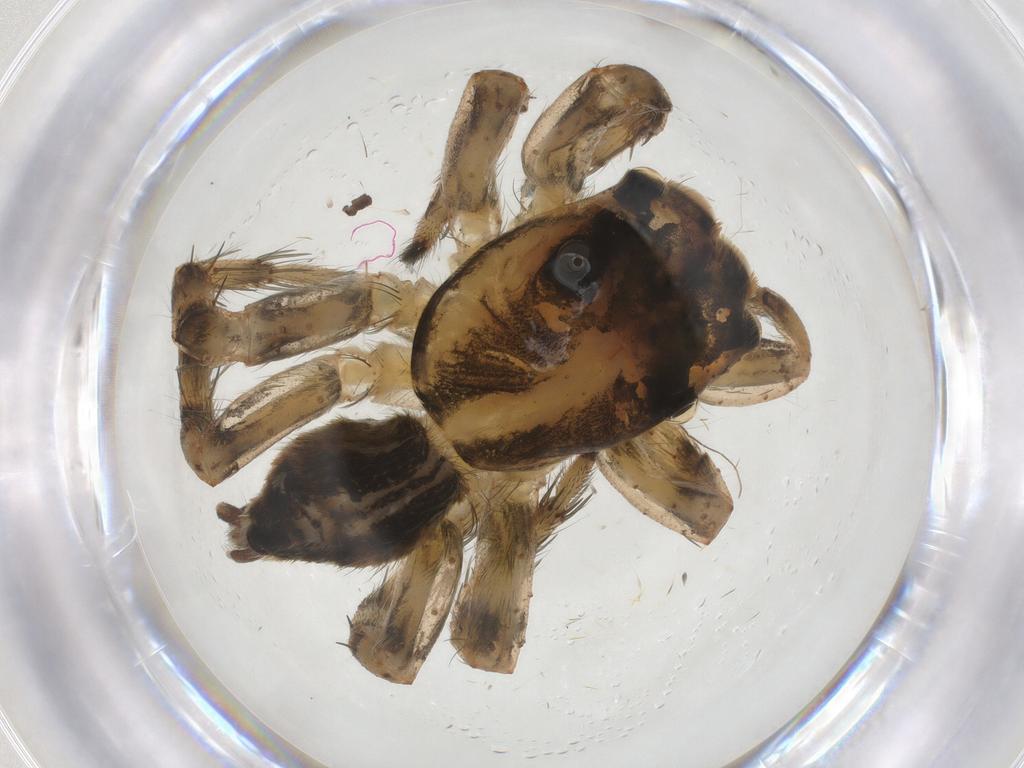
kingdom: Animalia
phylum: Arthropoda
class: Arachnida
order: Araneae
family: Salticidae
